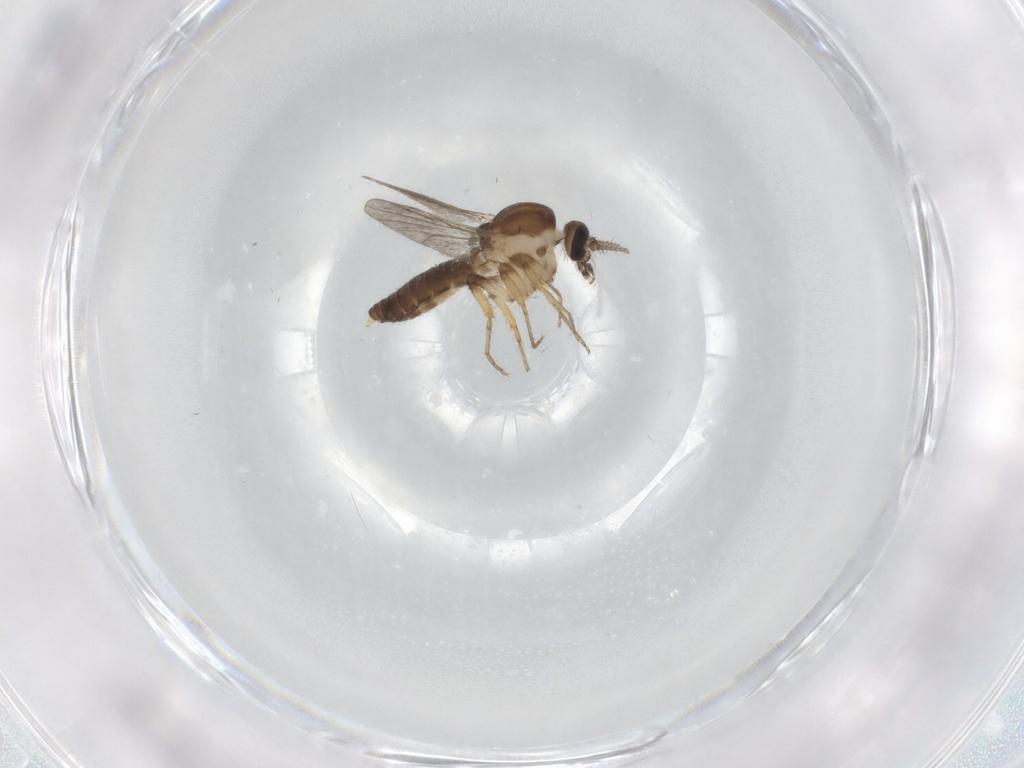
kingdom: Animalia
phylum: Arthropoda
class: Insecta
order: Diptera
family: Ceratopogonidae
